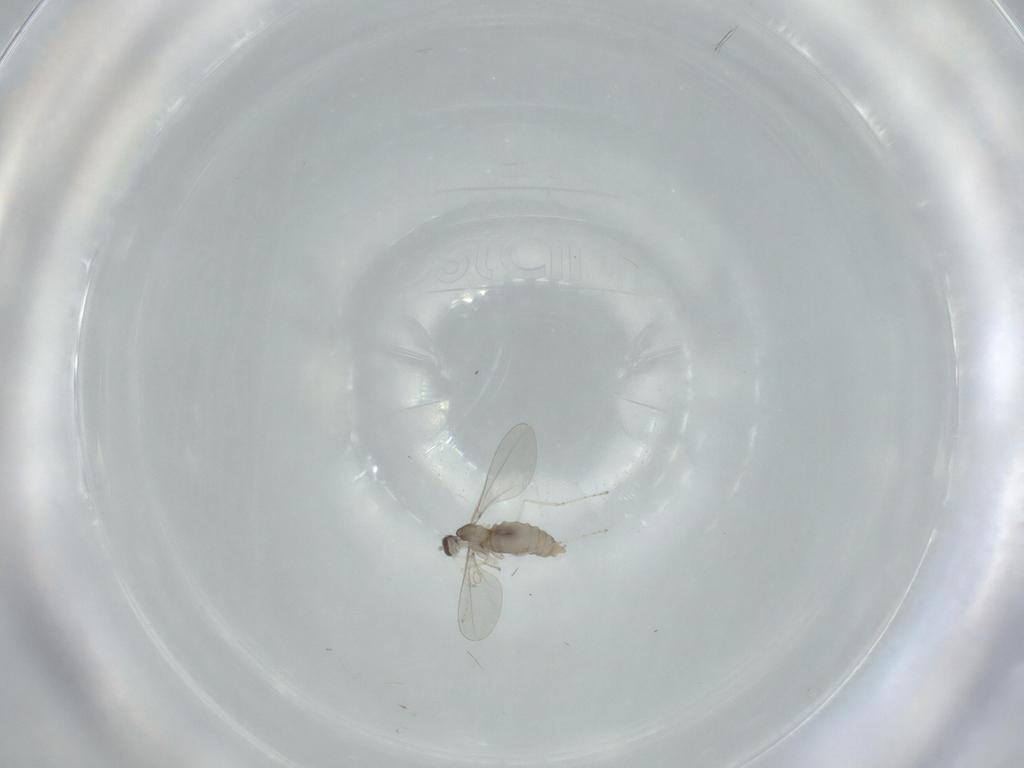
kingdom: Animalia
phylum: Arthropoda
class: Insecta
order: Diptera
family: Cecidomyiidae
